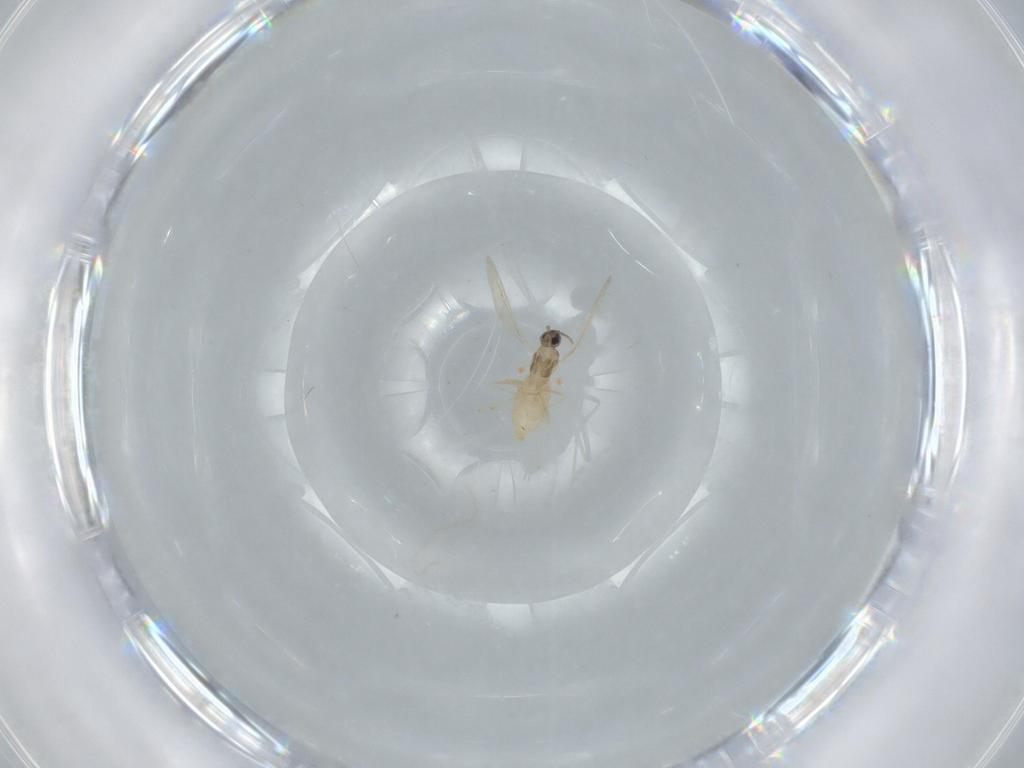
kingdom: Animalia
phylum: Arthropoda
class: Insecta
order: Diptera
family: Cecidomyiidae
